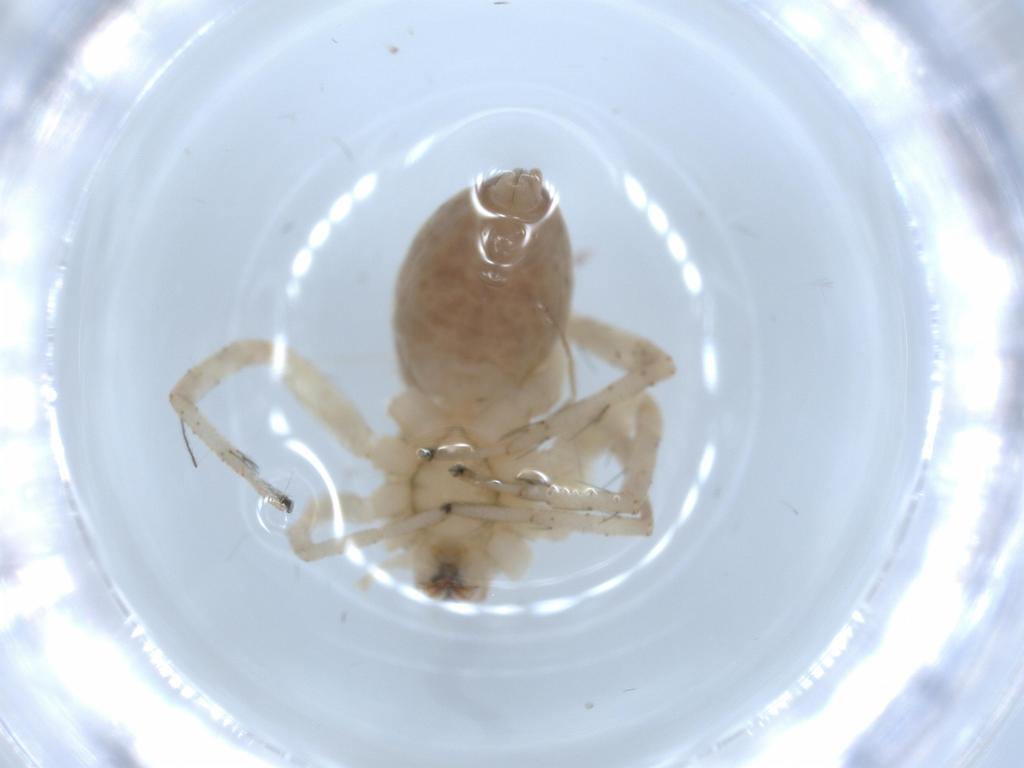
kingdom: Animalia
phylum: Arthropoda
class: Arachnida
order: Araneae
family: Anyphaenidae
